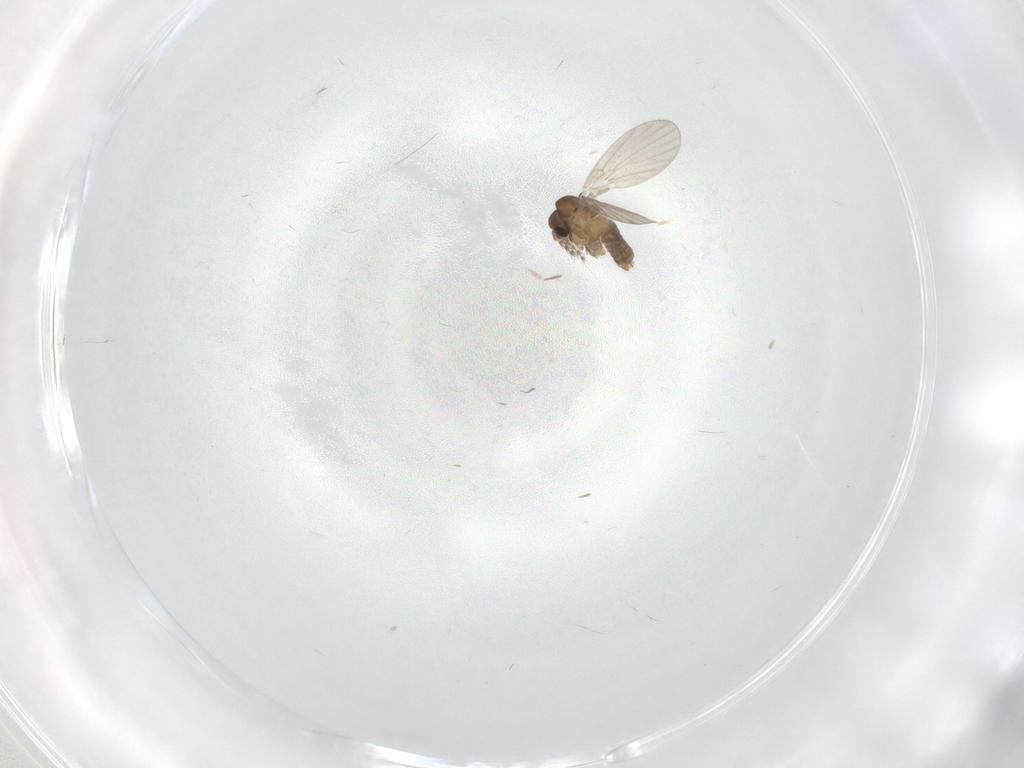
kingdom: Animalia
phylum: Arthropoda
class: Insecta
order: Diptera
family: Chironomidae
